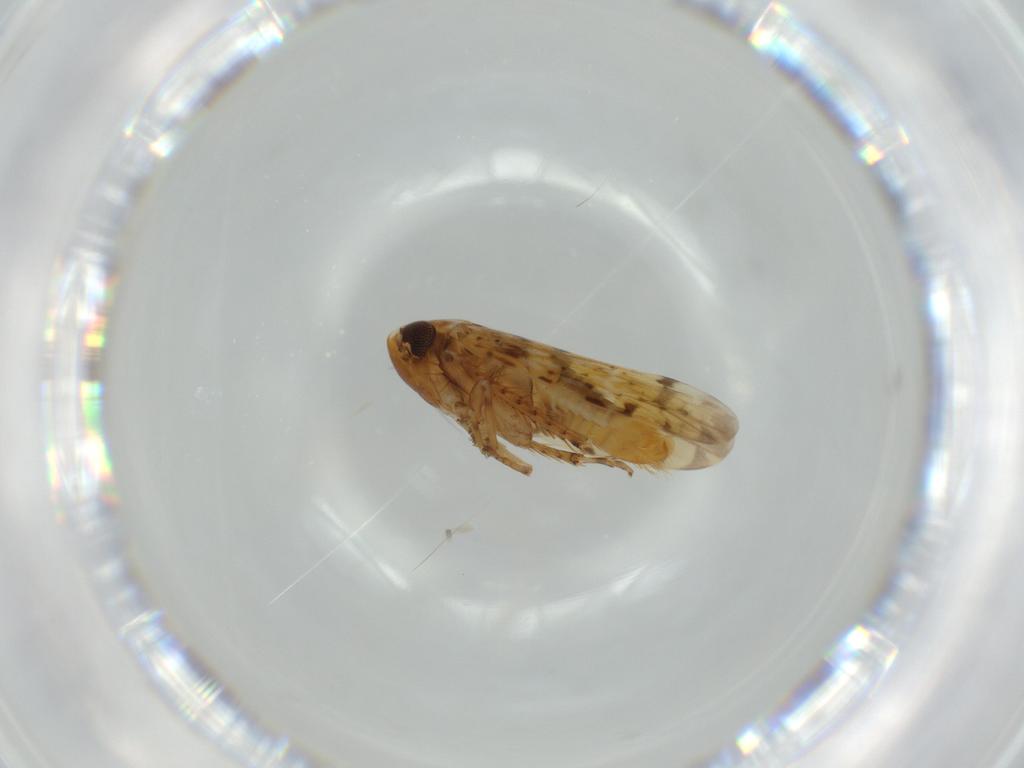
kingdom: Animalia
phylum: Arthropoda
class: Insecta
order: Hemiptera
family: Cicadellidae
